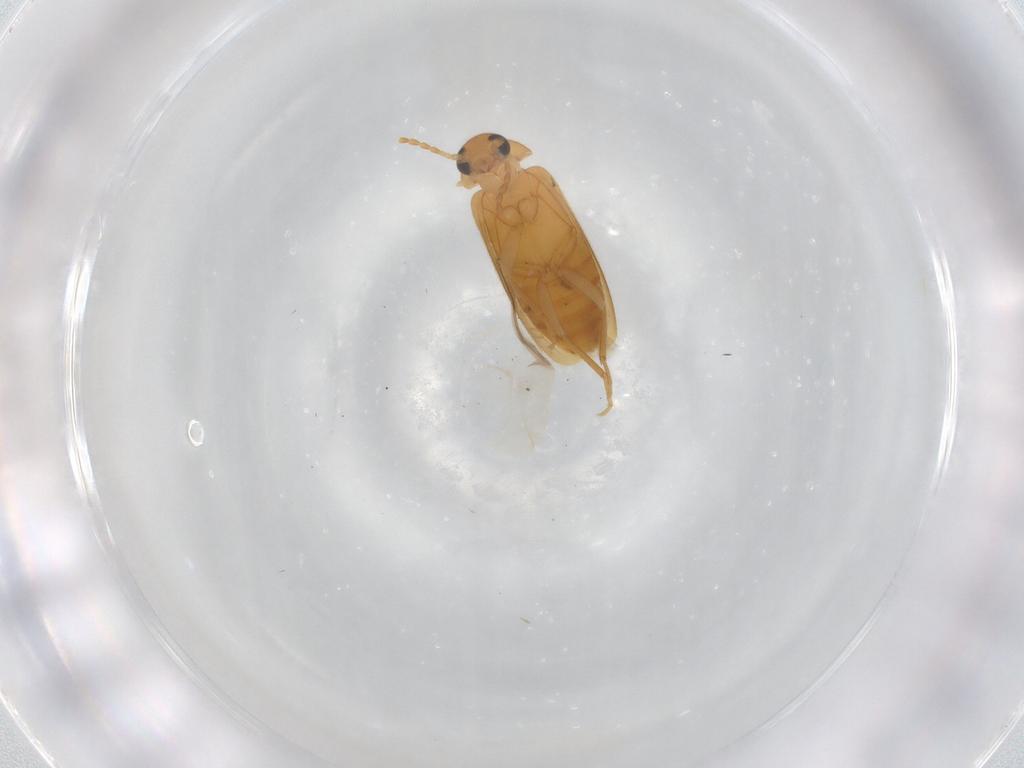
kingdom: Animalia
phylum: Arthropoda
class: Insecta
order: Coleoptera
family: Scraptiidae
